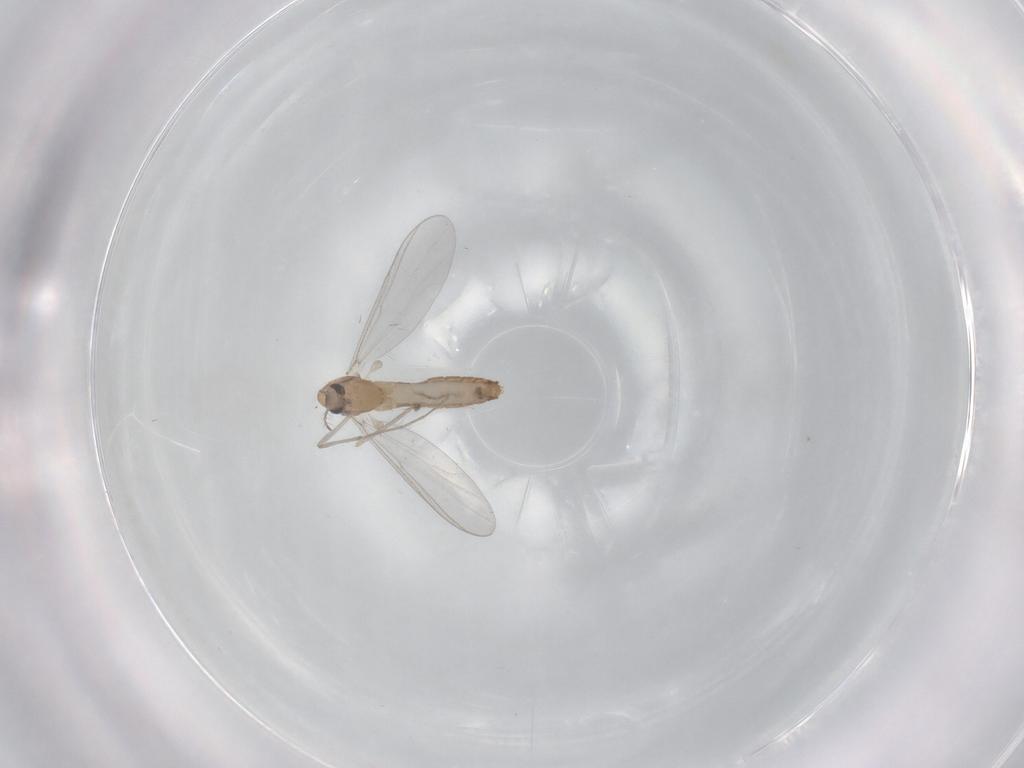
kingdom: Animalia
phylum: Arthropoda
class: Insecta
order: Diptera
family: Chironomidae
